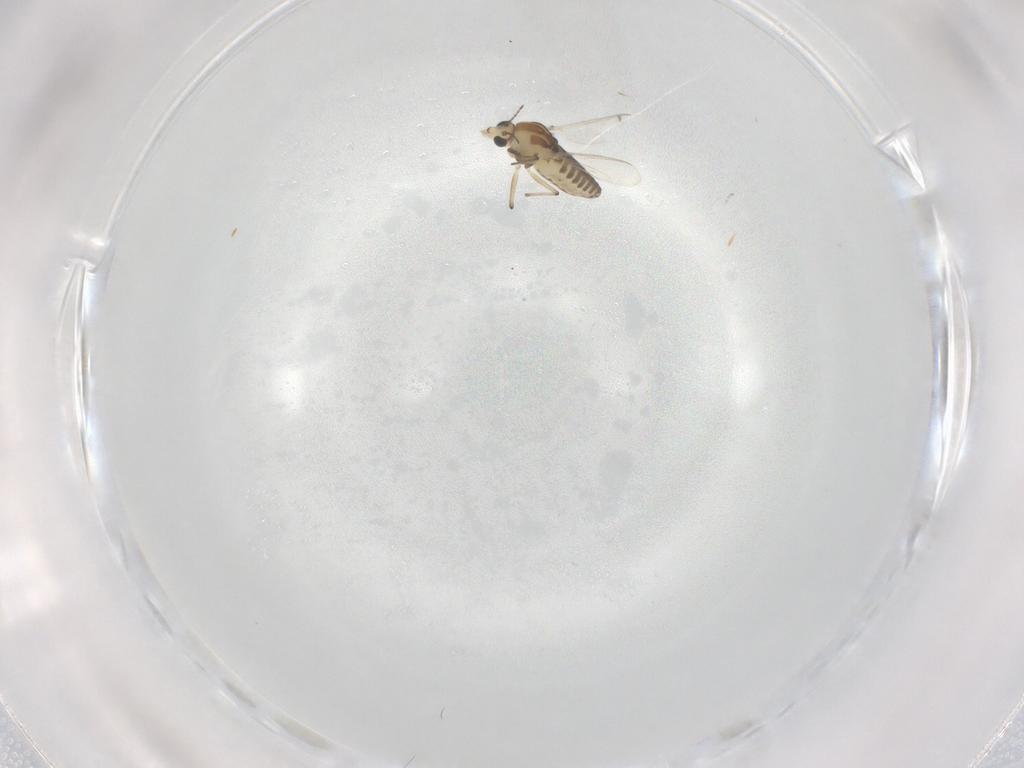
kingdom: Animalia
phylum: Arthropoda
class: Insecta
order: Diptera
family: Chironomidae
